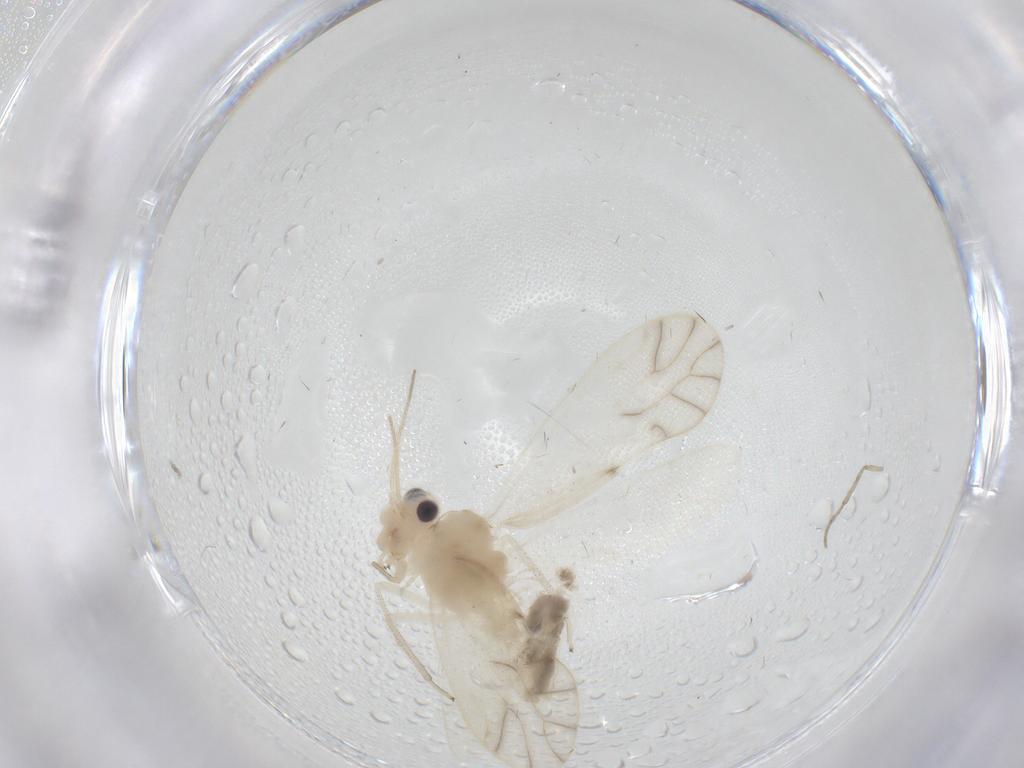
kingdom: Animalia
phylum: Arthropoda
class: Insecta
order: Psocodea
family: Caeciliusidae
